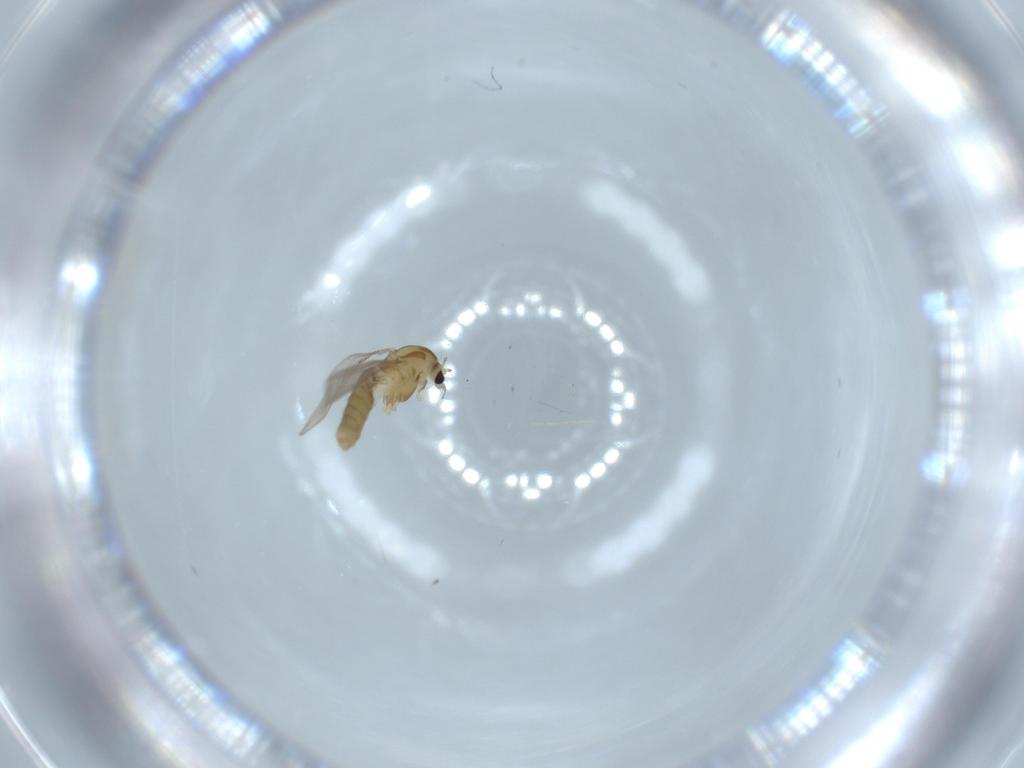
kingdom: Animalia
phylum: Arthropoda
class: Insecta
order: Diptera
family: Chironomidae
